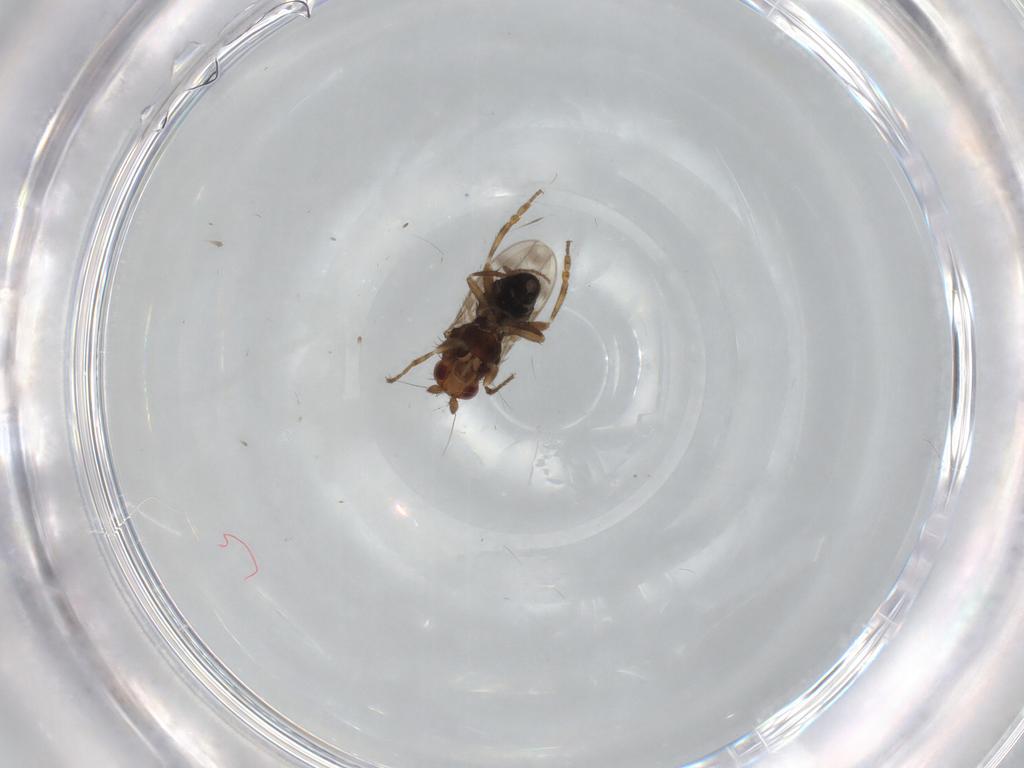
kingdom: Animalia
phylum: Arthropoda
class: Insecta
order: Diptera
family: Sphaeroceridae
